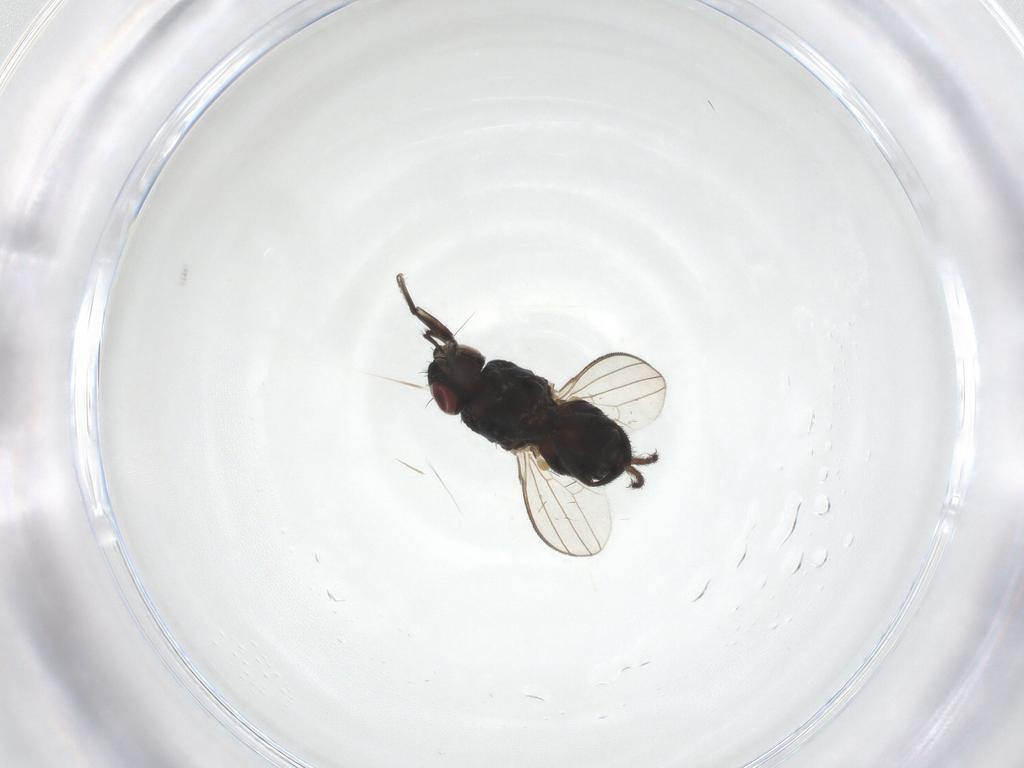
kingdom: Animalia
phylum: Arthropoda
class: Insecta
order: Diptera
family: Milichiidae
